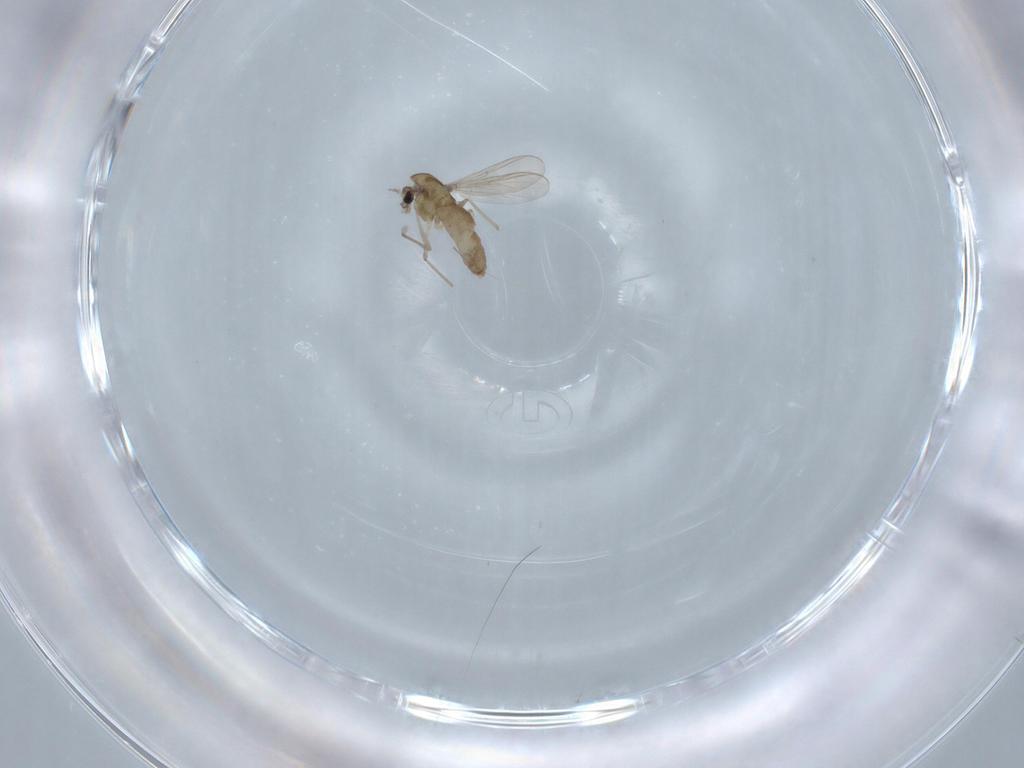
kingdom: Animalia
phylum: Arthropoda
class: Insecta
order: Diptera
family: Chironomidae
